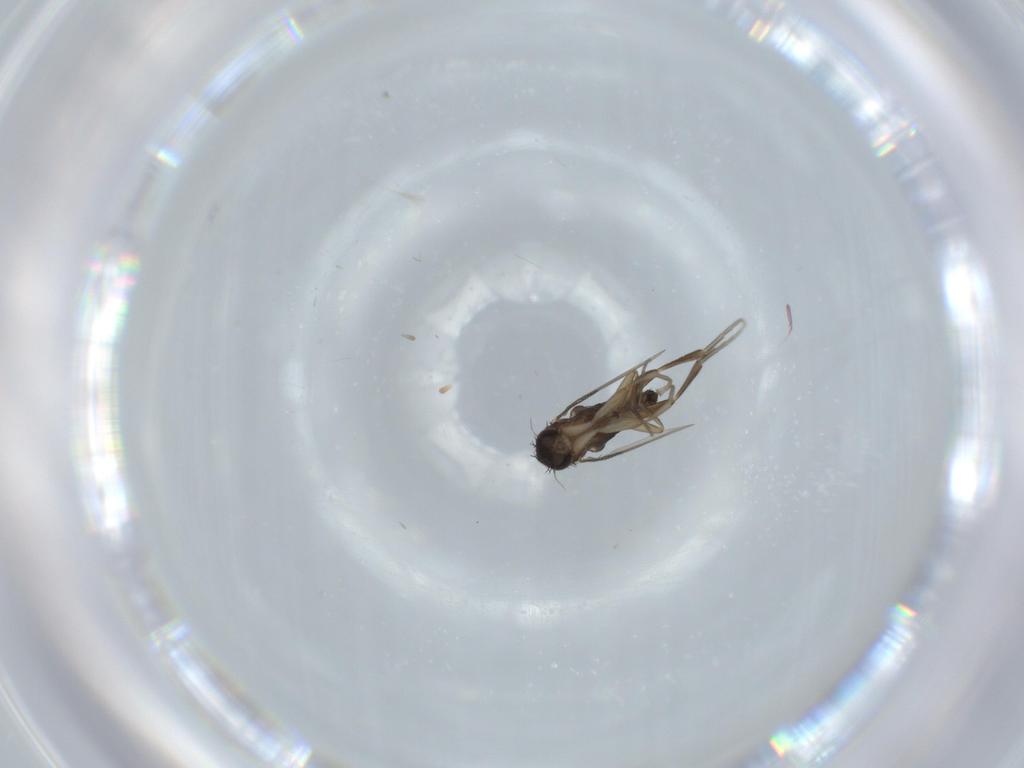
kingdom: Animalia
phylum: Arthropoda
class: Insecta
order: Diptera
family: Phoridae
